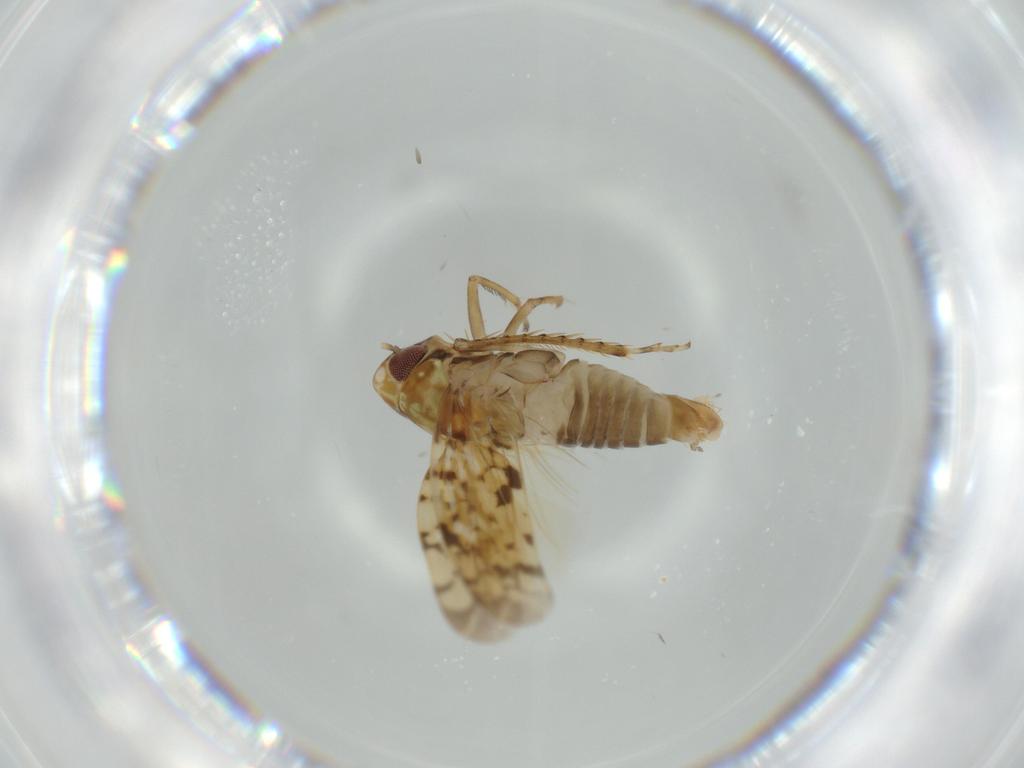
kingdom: Animalia
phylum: Arthropoda
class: Insecta
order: Hemiptera
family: Cicadellidae
